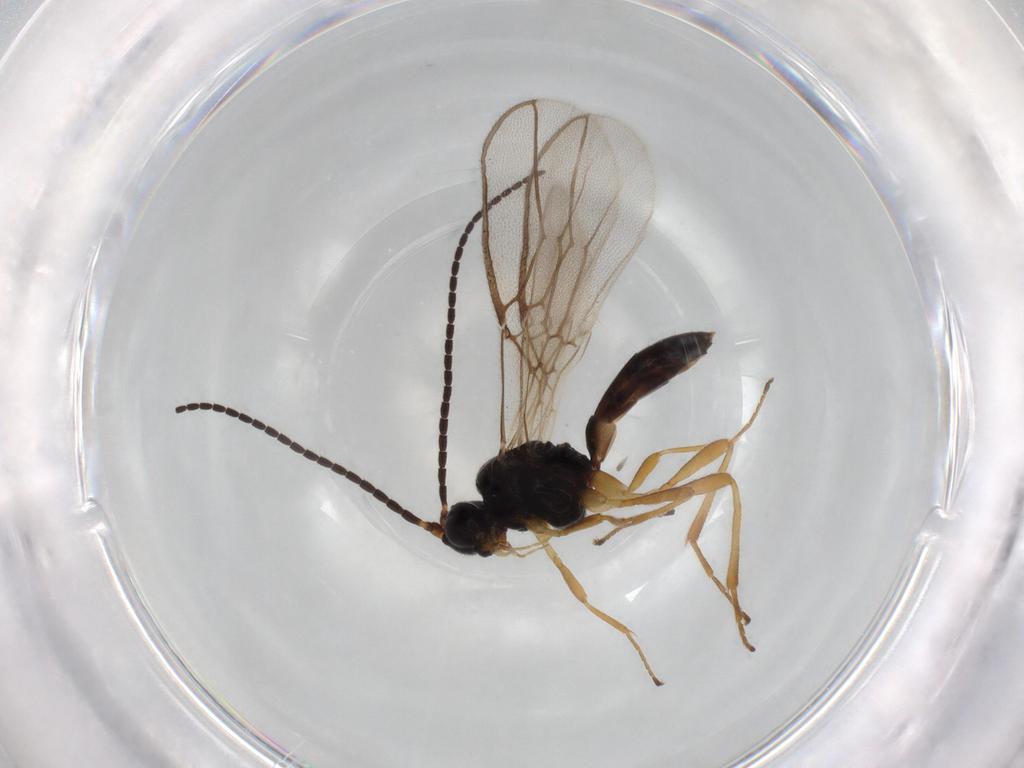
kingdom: Animalia
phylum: Arthropoda
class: Insecta
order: Hymenoptera
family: Braconidae
